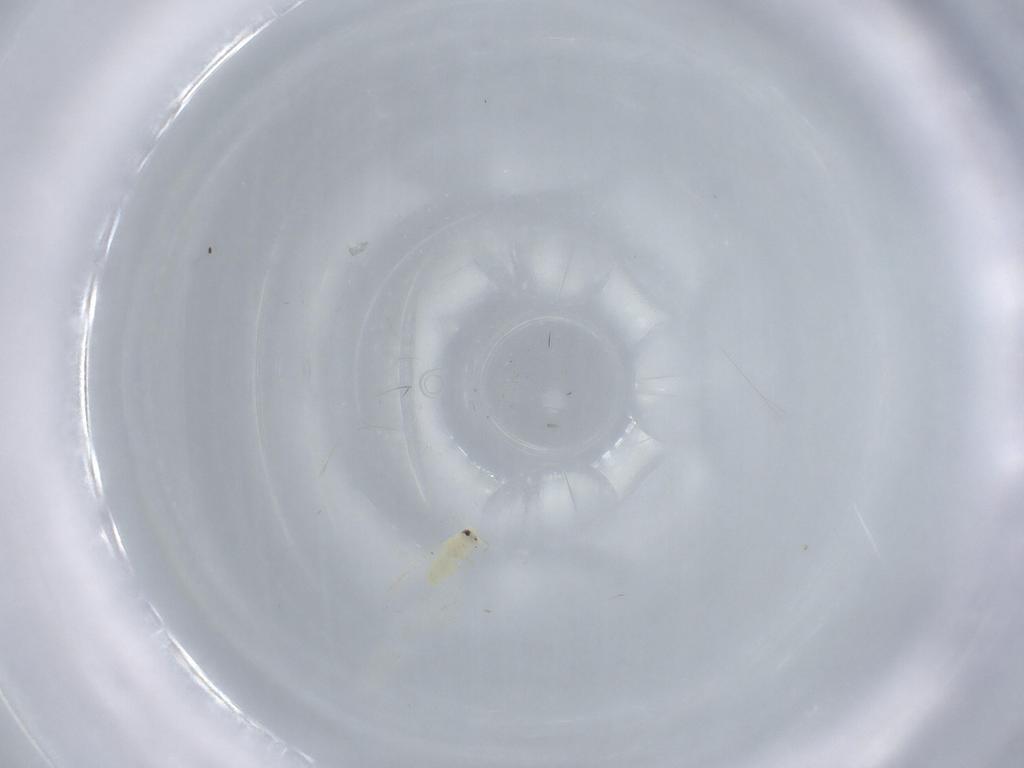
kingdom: Animalia
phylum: Arthropoda
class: Insecta
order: Hemiptera
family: Aleyrodidae
